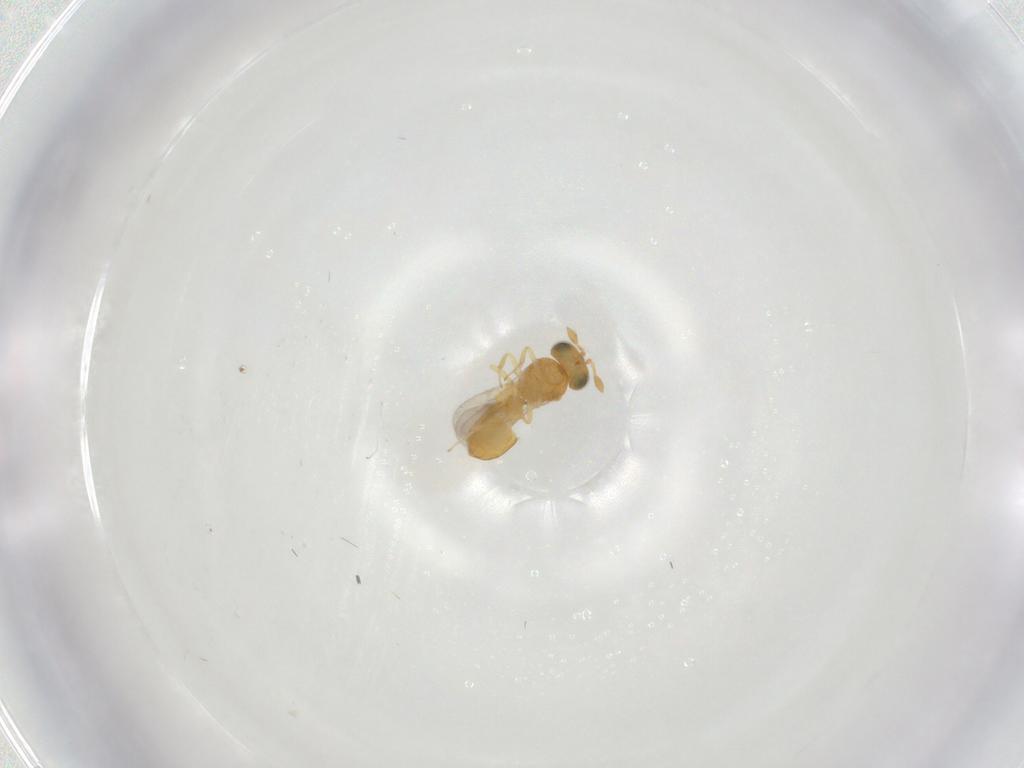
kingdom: Animalia
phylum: Arthropoda
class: Insecta
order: Hymenoptera
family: Scelionidae
